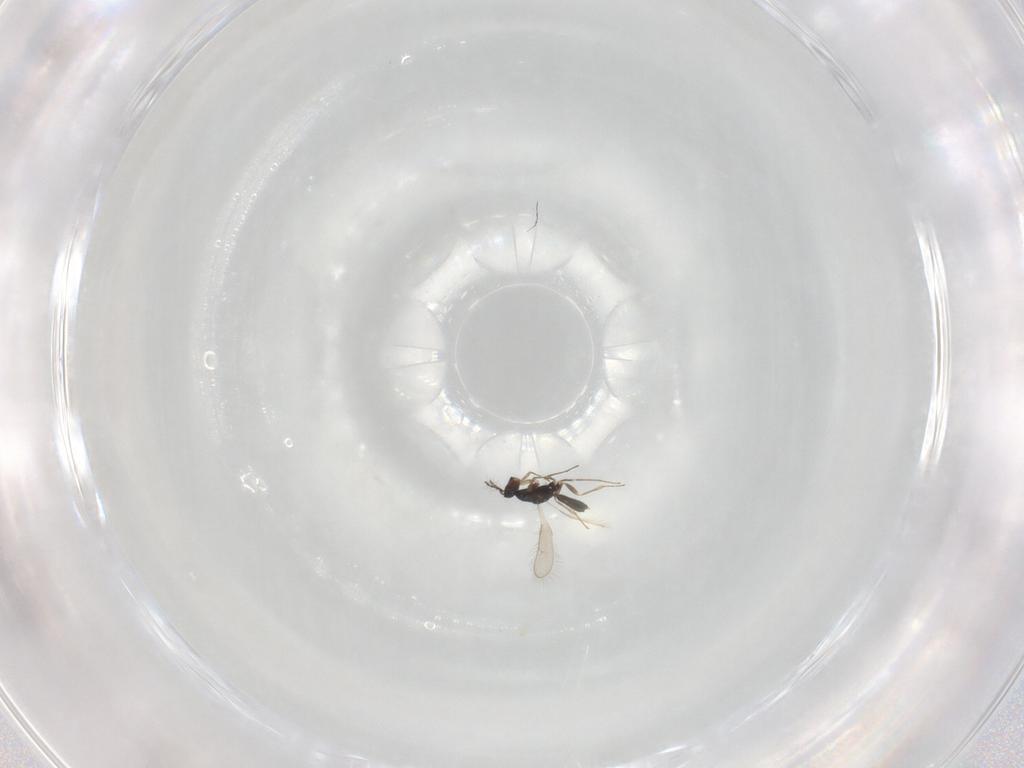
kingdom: Animalia
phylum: Arthropoda
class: Insecta
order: Hymenoptera
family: Pteromalidae
